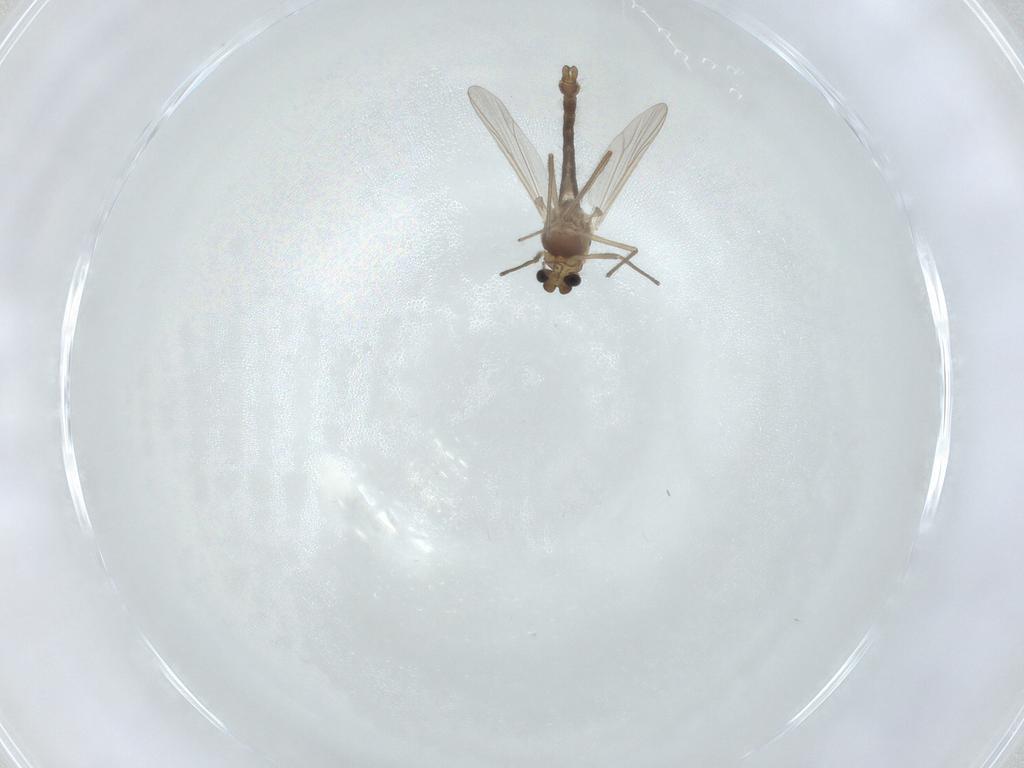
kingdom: Animalia
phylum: Arthropoda
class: Insecta
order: Diptera
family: Chironomidae
